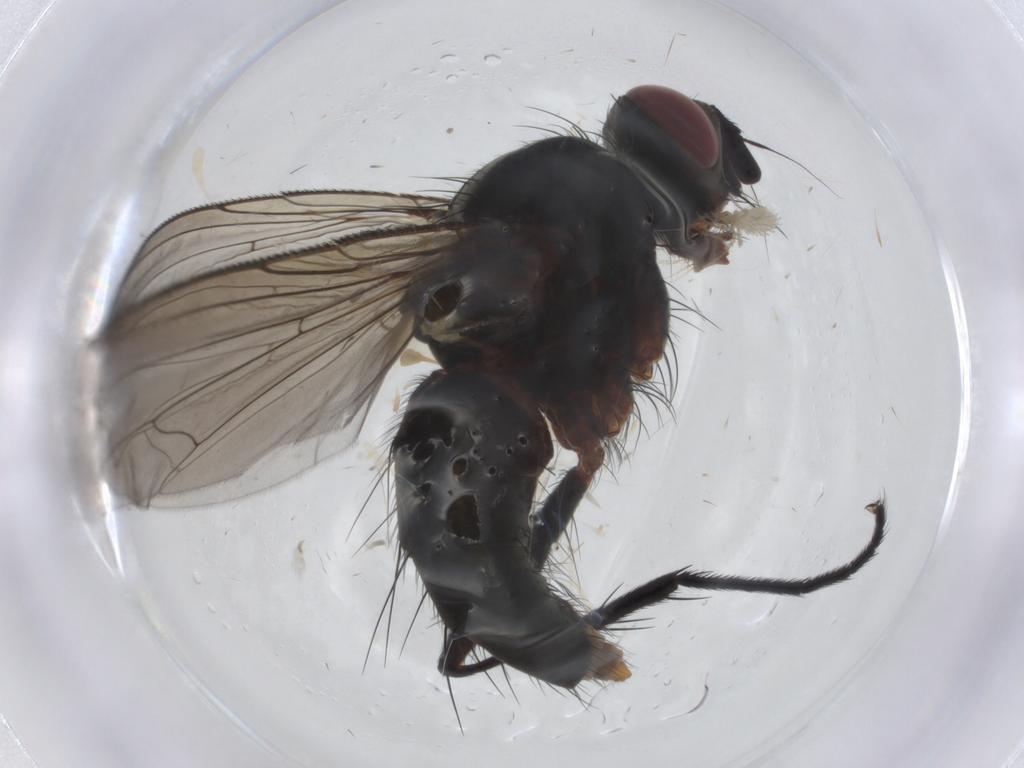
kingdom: Animalia
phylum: Arthropoda
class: Insecta
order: Diptera
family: Tachinidae
